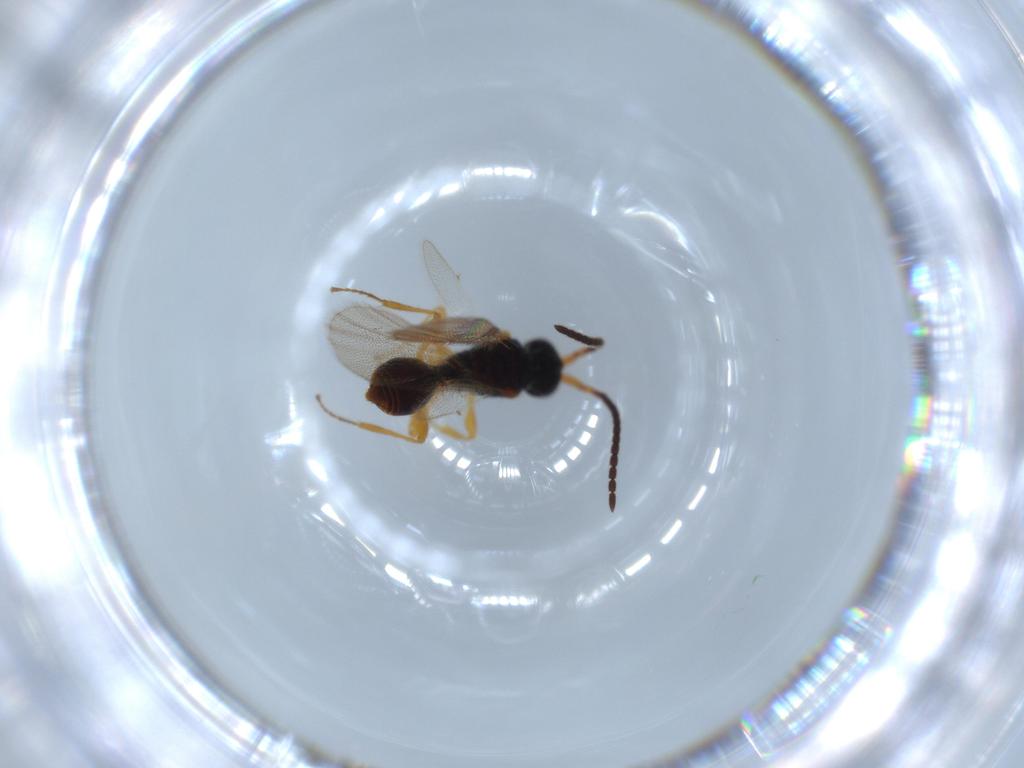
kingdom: Animalia
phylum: Arthropoda
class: Insecta
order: Hymenoptera
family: Diapriidae
